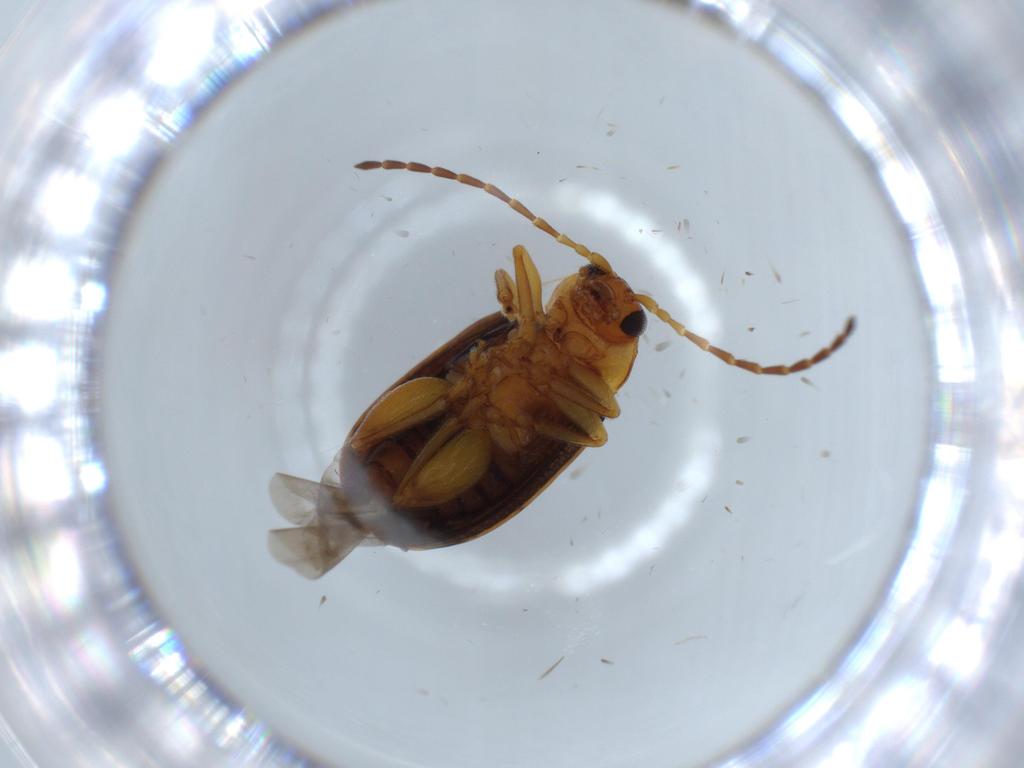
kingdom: Animalia
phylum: Arthropoda
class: Insecta
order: Coleoptera
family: Chrysomelidae
